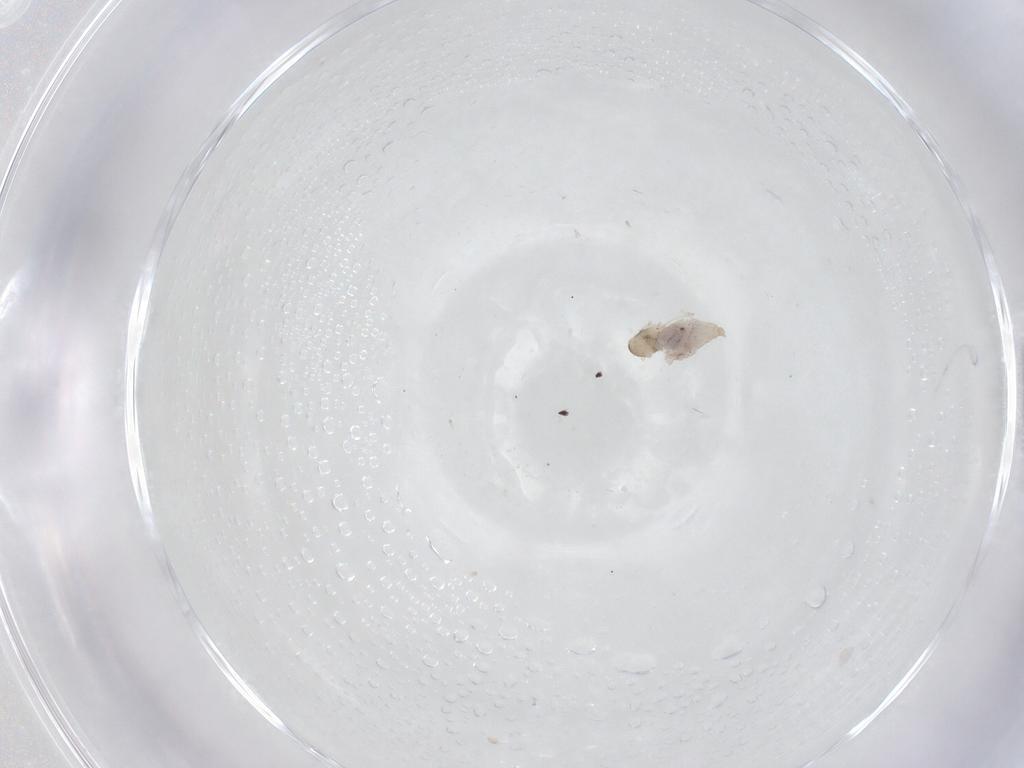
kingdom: Animalia
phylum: Arthropoda
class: Insecta
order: Diptera
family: Cecidomyiidae
